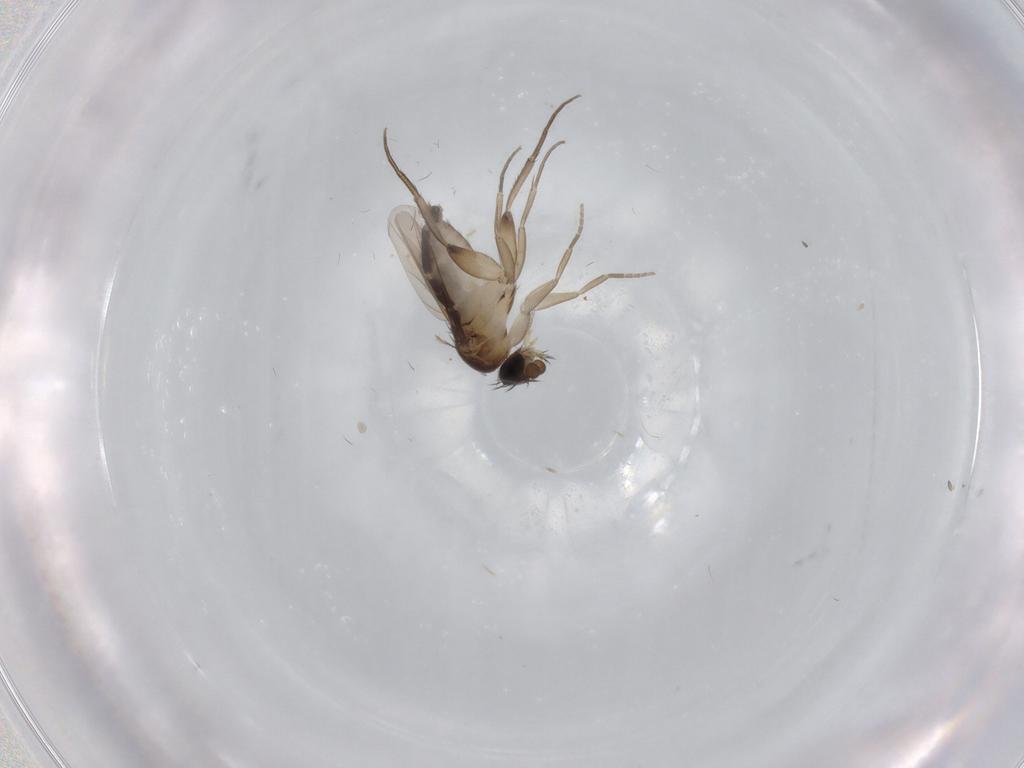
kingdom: Animalia
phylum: Arthropoda
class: Insecta
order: Diptera
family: Phoridae
